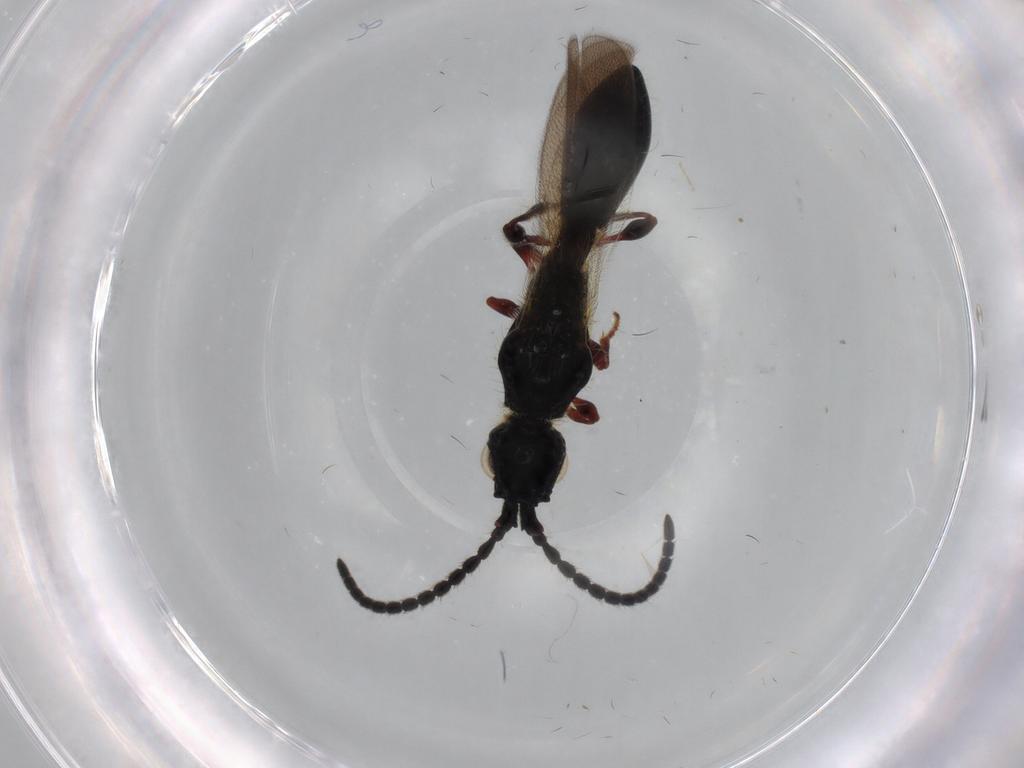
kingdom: Animalia
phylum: Arthropoda
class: Insecta
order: Hymenoptera
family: Diapriidae
